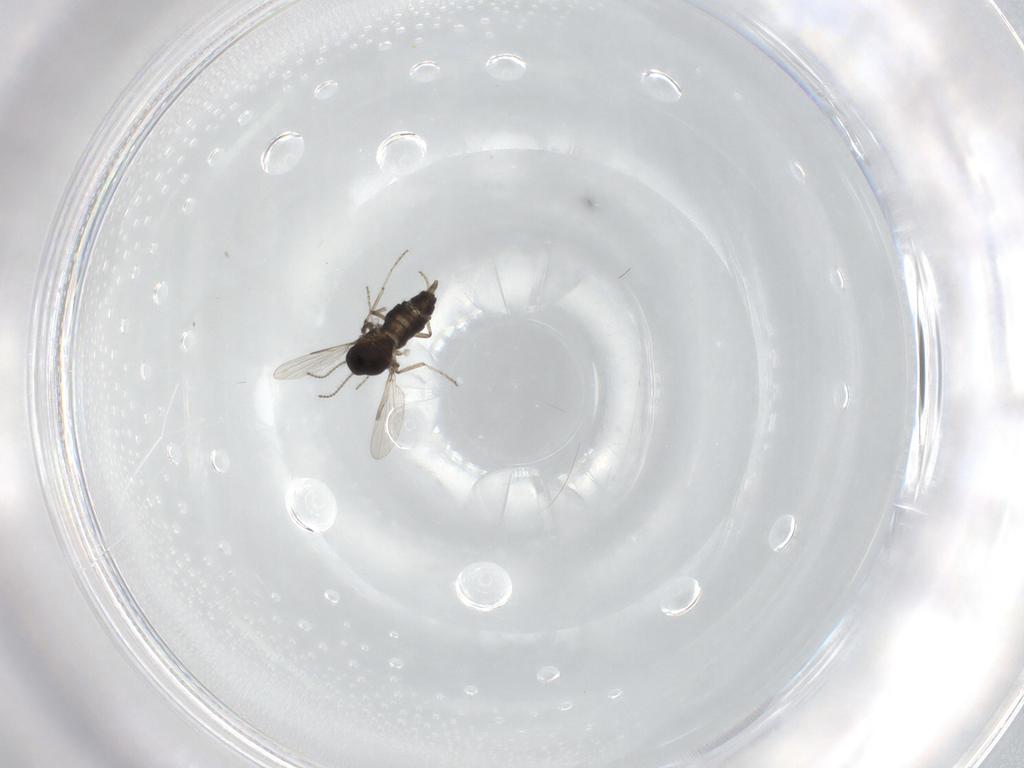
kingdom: Animalia
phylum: Arthropoda
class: Insecta
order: Diptera
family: Ceratopogonidae
